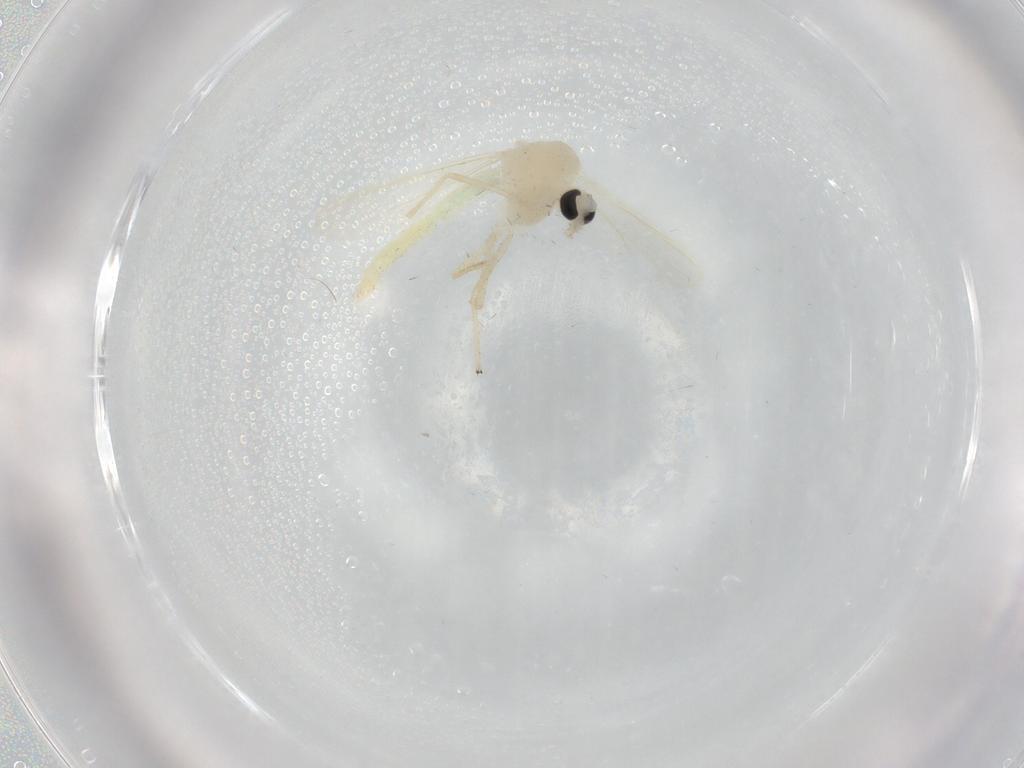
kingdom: Animalia
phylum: Arthropoda
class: Insecta
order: Diptera
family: Chironomidae
